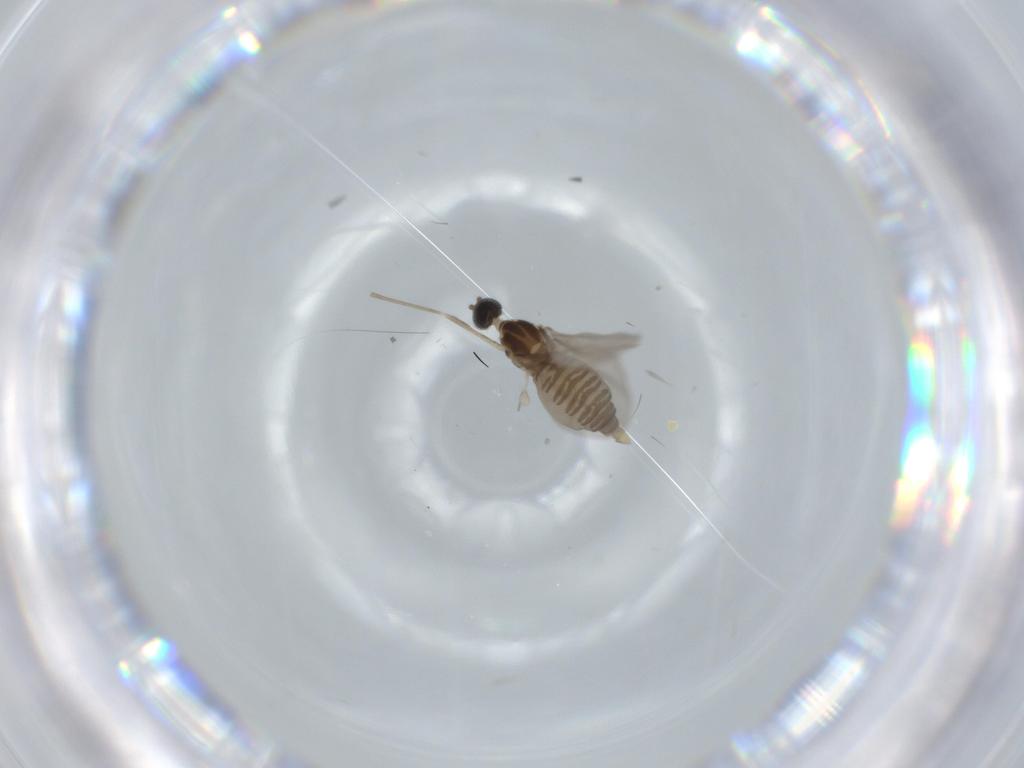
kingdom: Animalia
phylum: Arthropoda
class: Insecta
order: Diptera
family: Cecidomyiidae
